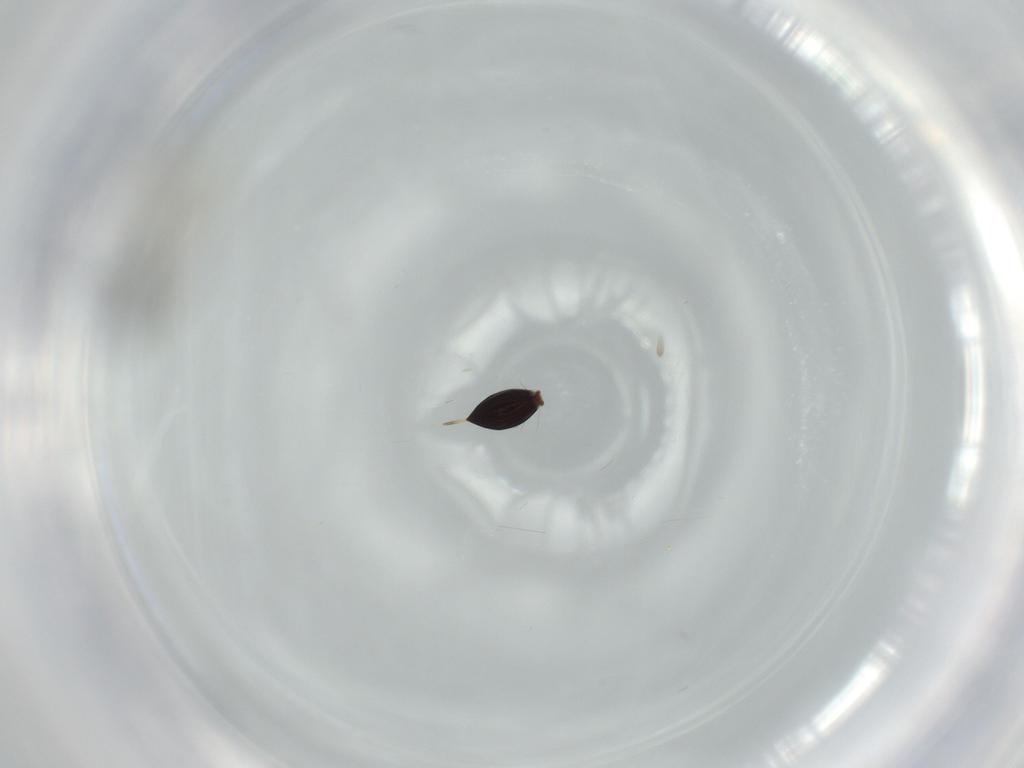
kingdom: Animalia
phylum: Arthropoda
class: Insecta
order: Hymenoptera
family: Platygastridae
